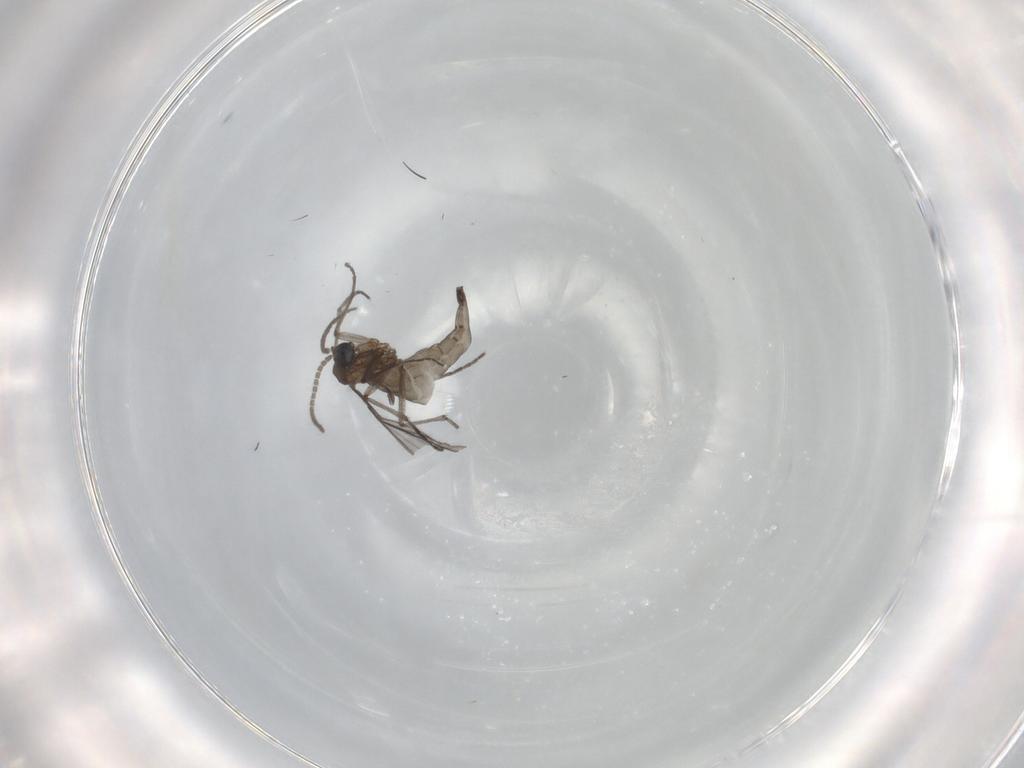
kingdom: Animalia
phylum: Arthropoda
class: Insecta
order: Diptera
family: Sciaridae
